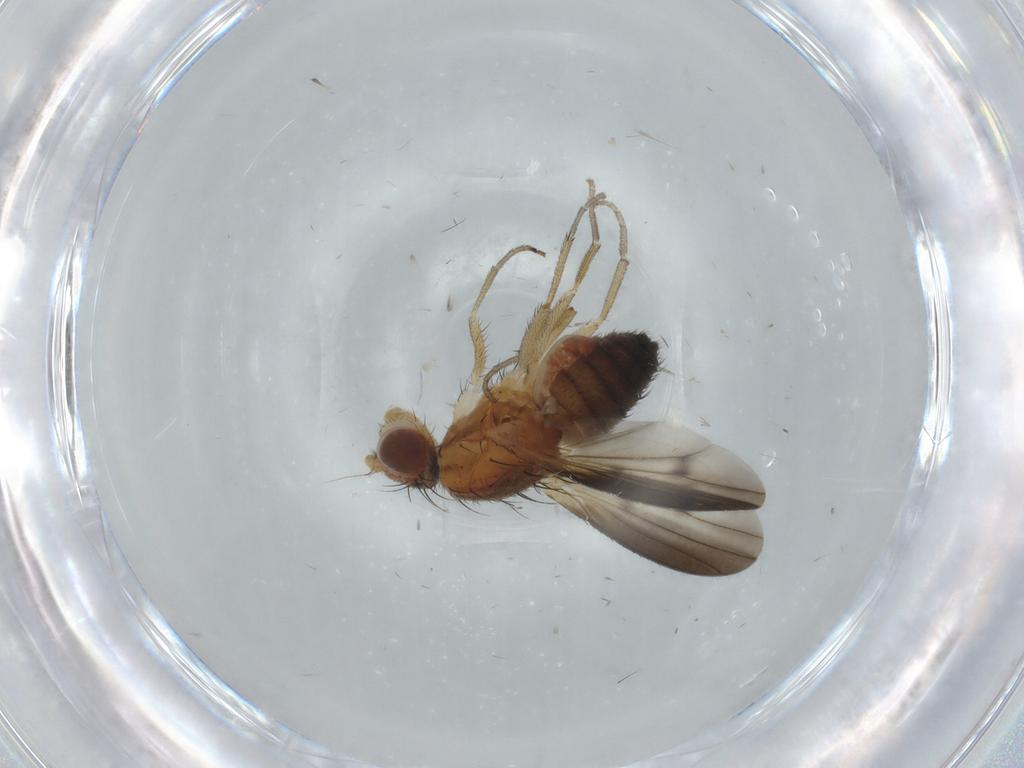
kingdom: Animalia
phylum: Arthropoda
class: Insecta
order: Diptera
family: Heleomyzidae
